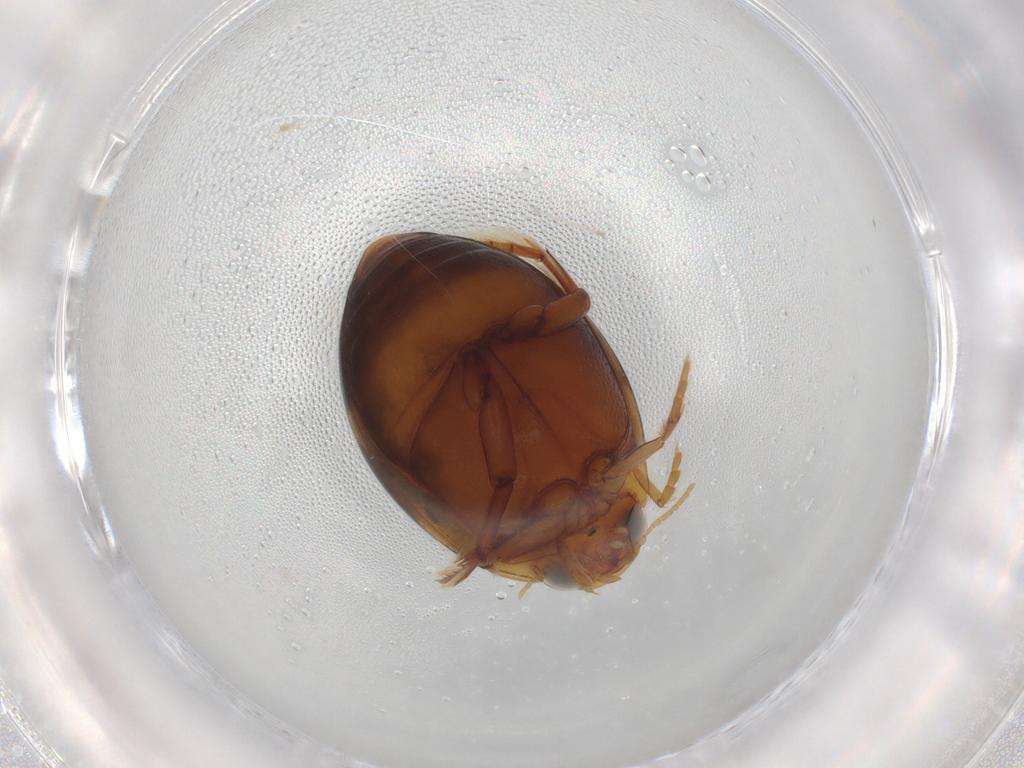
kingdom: Animalia
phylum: Arthropoda
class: Insecta
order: Coleoptera
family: Dytiscidae
